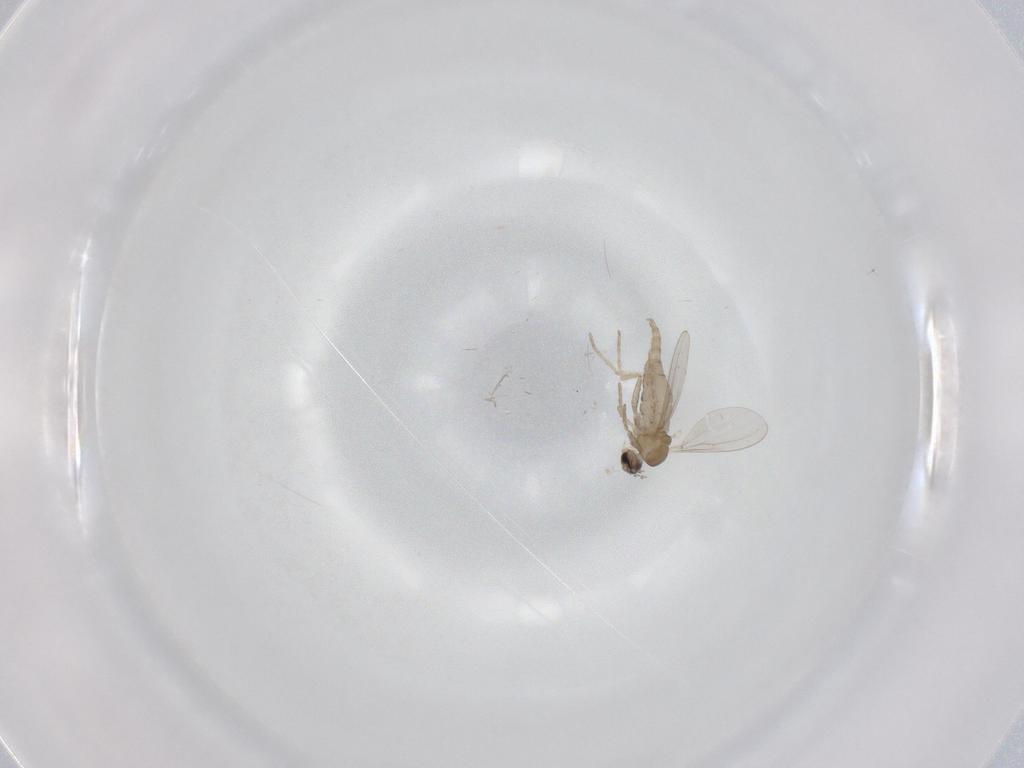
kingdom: Animalia
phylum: Arthropoda
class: Insecta
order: Diptera
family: Cecidomyiidae
